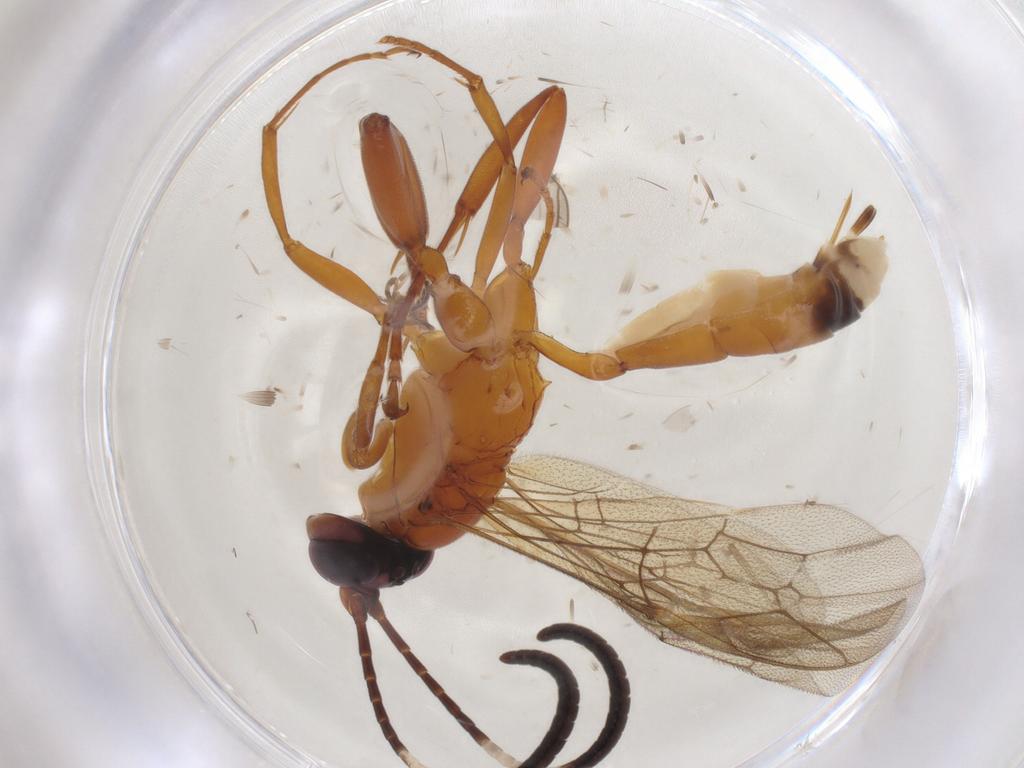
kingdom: Animalia
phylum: Arthropoda
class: Insecta
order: Hymenoptera
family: Ichneumonidae
